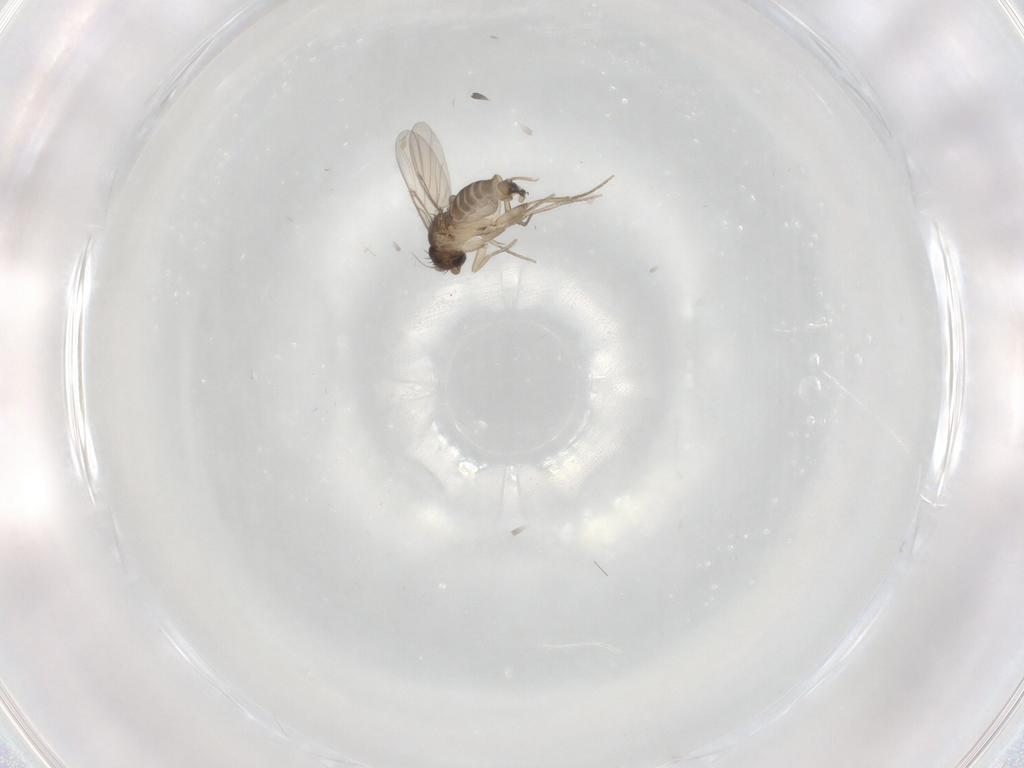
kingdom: Animalia
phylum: Arthropoda
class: Insecta
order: Diptera
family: Phoridae
